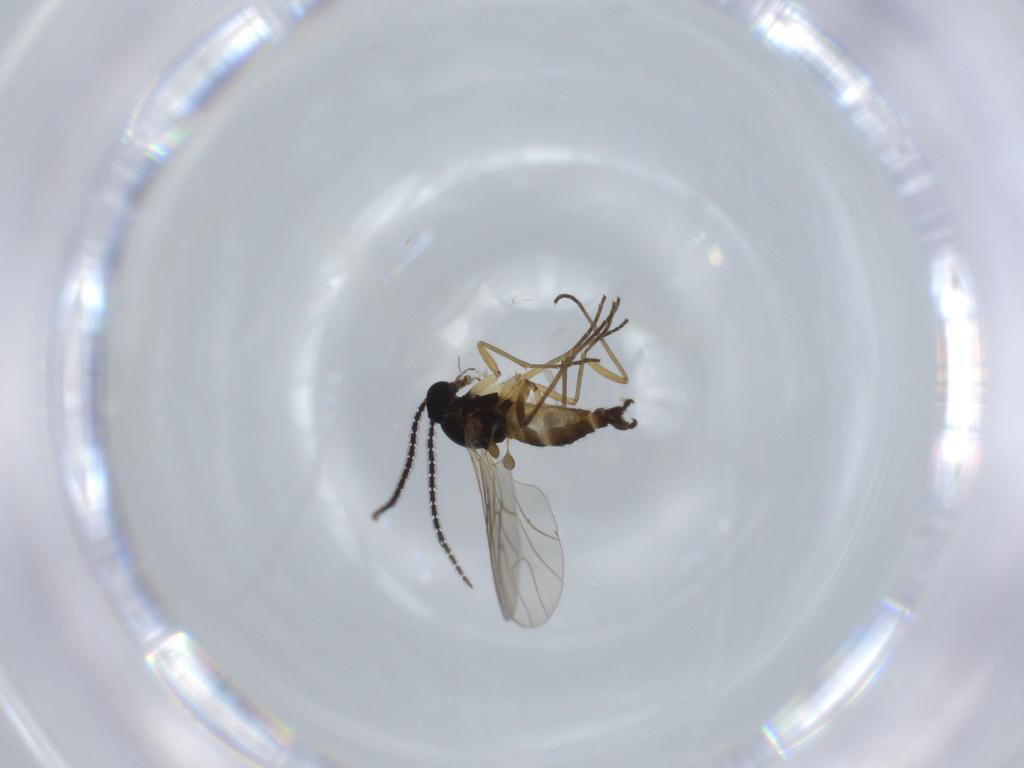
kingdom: Animalia
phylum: Arthropoda
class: Insecta
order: Diptera
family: Sciaridae
